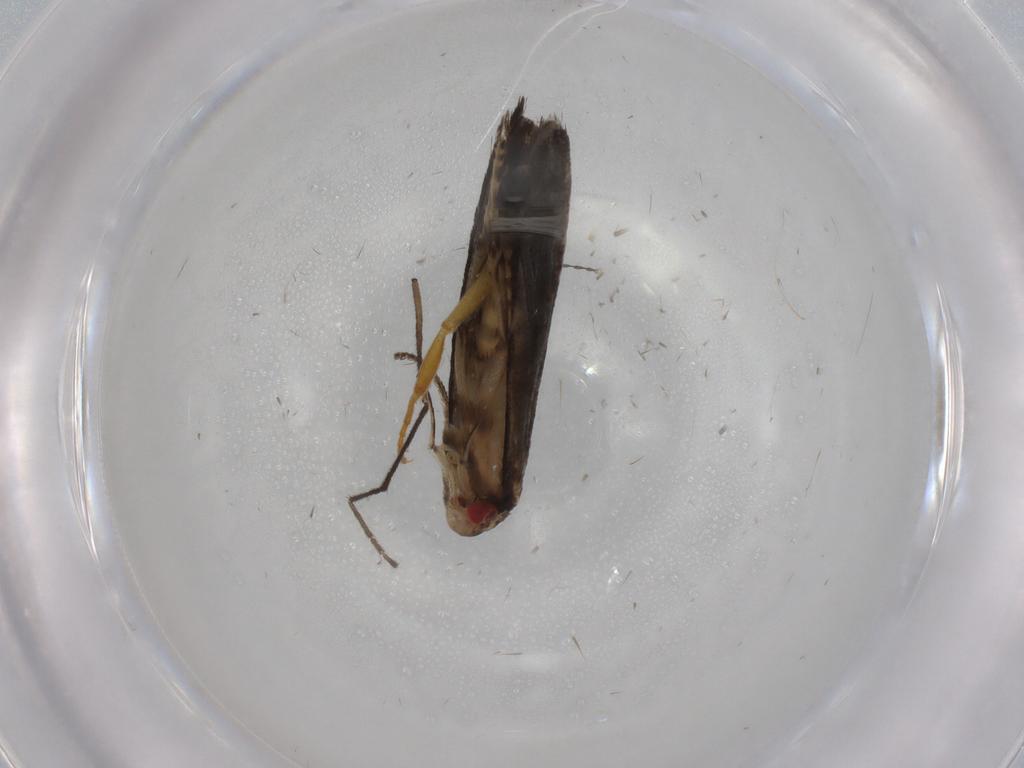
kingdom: Animalia
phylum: Arthropoda
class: Insecta
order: Lepidoptera
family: Gelechiidae
